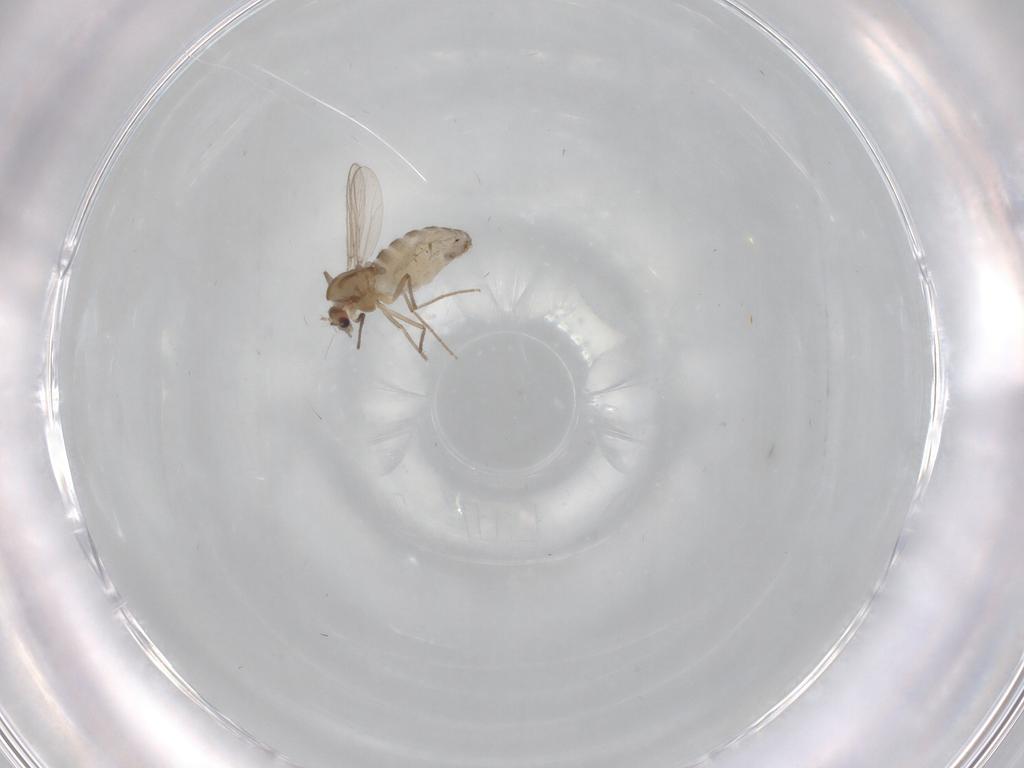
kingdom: Animalia
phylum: Arthropoda
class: Insecta
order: Diptera
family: Chironomidae
